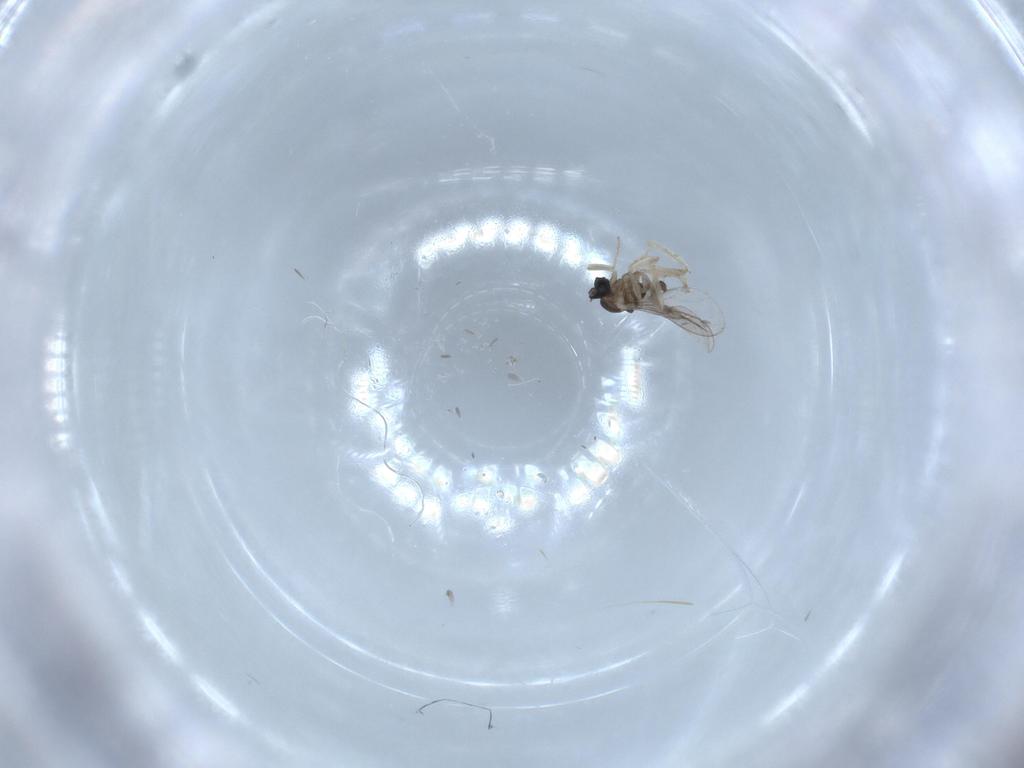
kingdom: Animalia
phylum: Arthropoda
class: Insecta
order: Diptera
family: Cecidomyiidae
